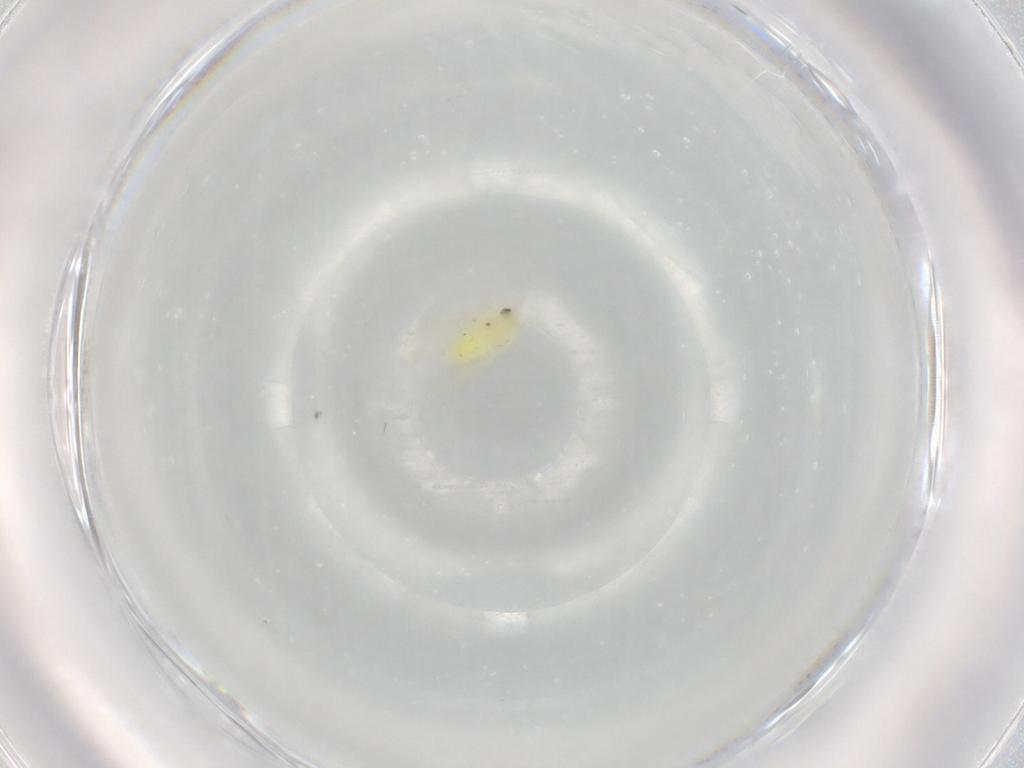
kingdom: Animalia
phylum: Arthropoda
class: Insecta
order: Hemiptera
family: Aleyrodidae
